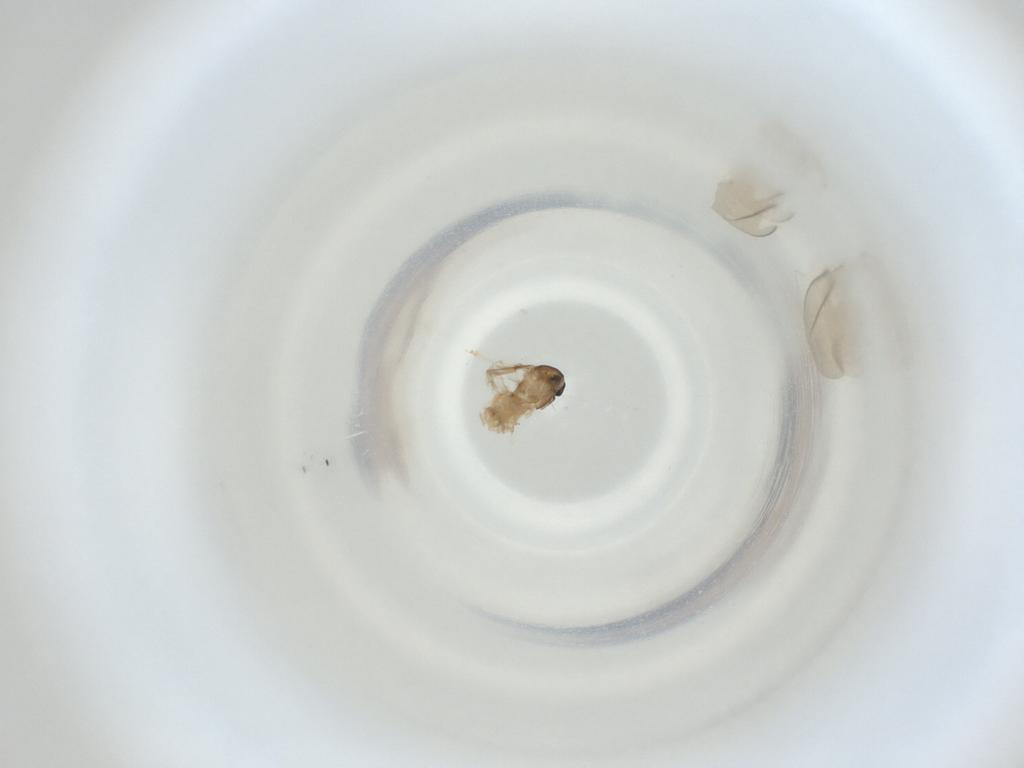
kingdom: Animalia
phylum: Arthropoda
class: Insecta
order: Diptera
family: Cecidomyiidae
